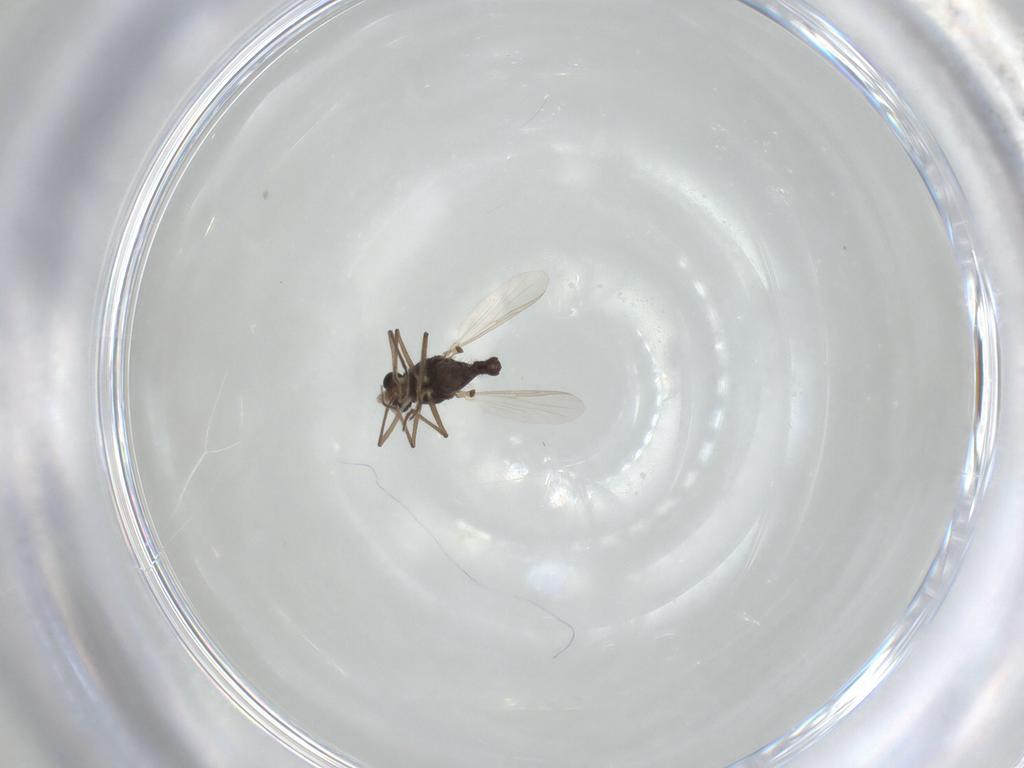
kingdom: Animalia
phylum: Arthropoda
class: Insecta
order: Diptera
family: Chironomidae
